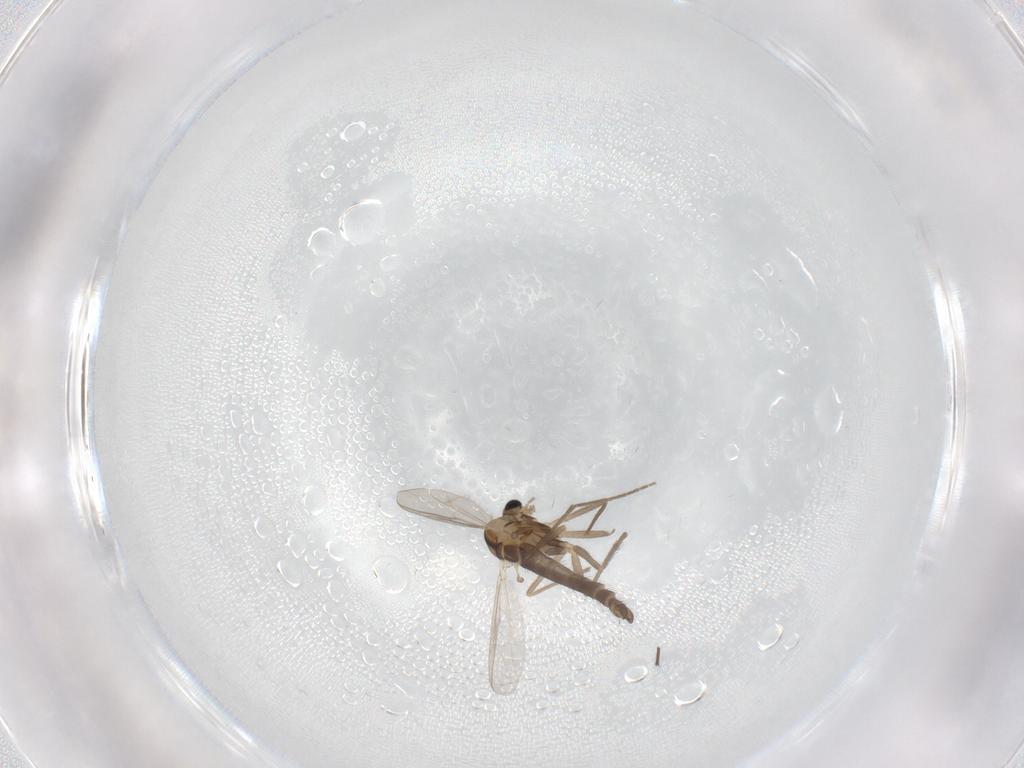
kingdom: Animalia
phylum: Arthropoda
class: Insecta
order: Diptera
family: Chironomidae
